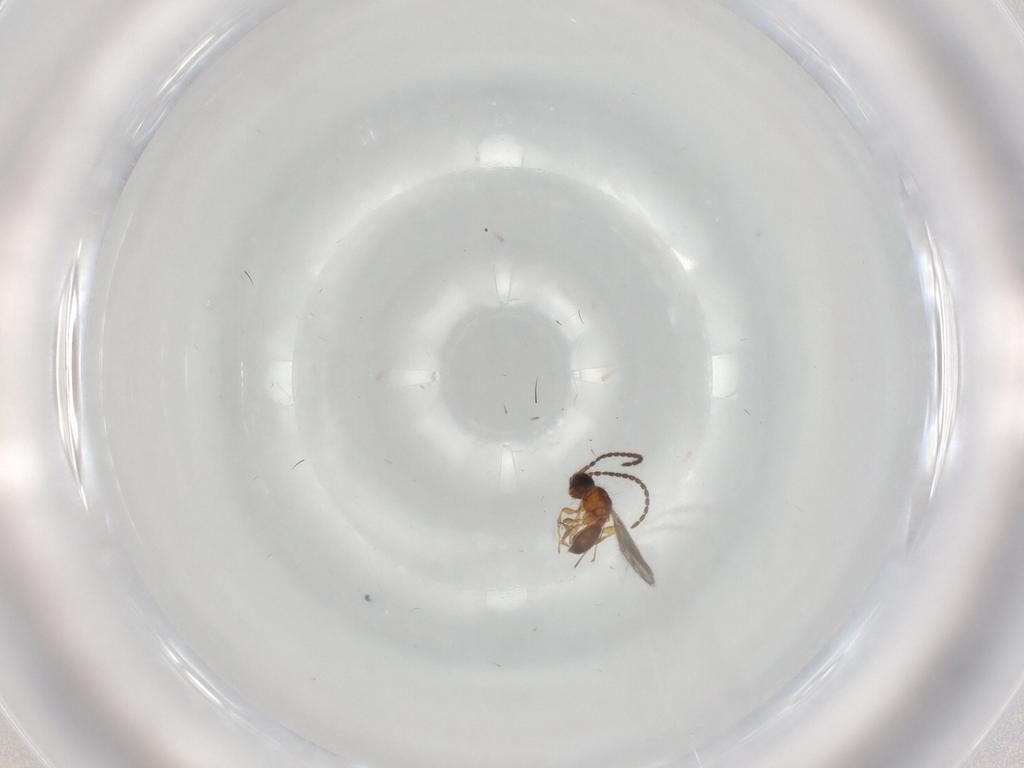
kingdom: Animalia
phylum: Arthropoda
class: Insecta
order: Hymenoptera
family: Diapriidae
